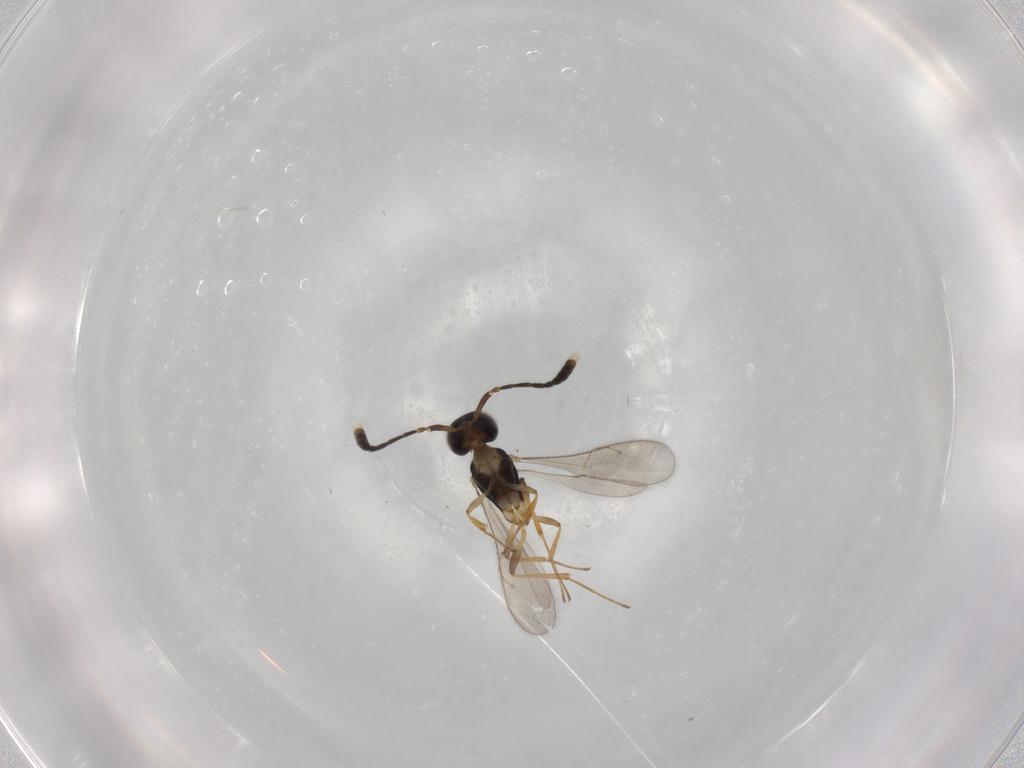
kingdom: Animalia
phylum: Arthropoda
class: Insecta
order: Hymenoptera
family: Scelionidae
